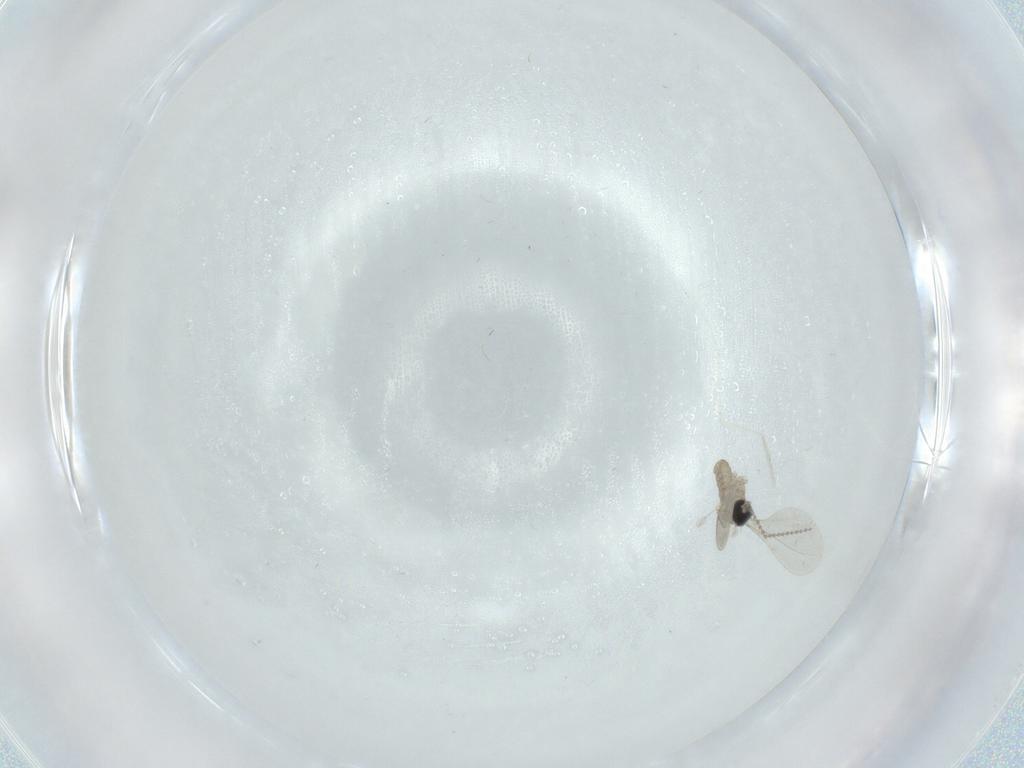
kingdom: Animalia
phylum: Arthropoda
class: Insecta
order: Diptera
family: Cecidomyiidae
